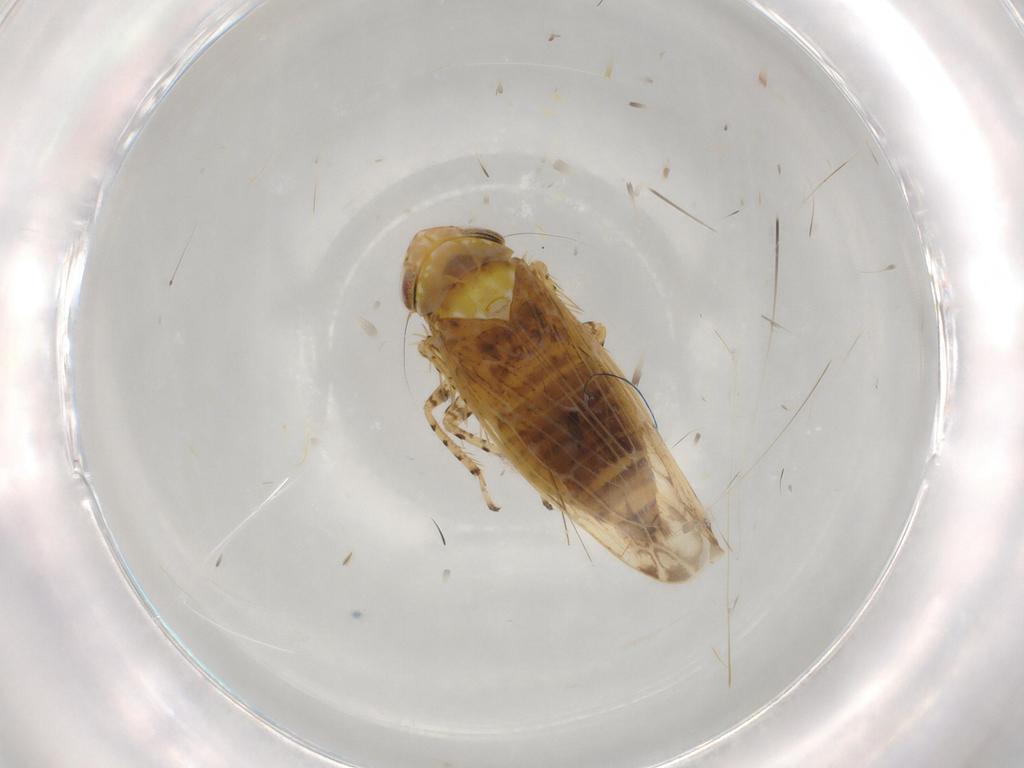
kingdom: Animalia
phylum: Arthropoda
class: Insecta
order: Hemiptera
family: Cicadellidae
